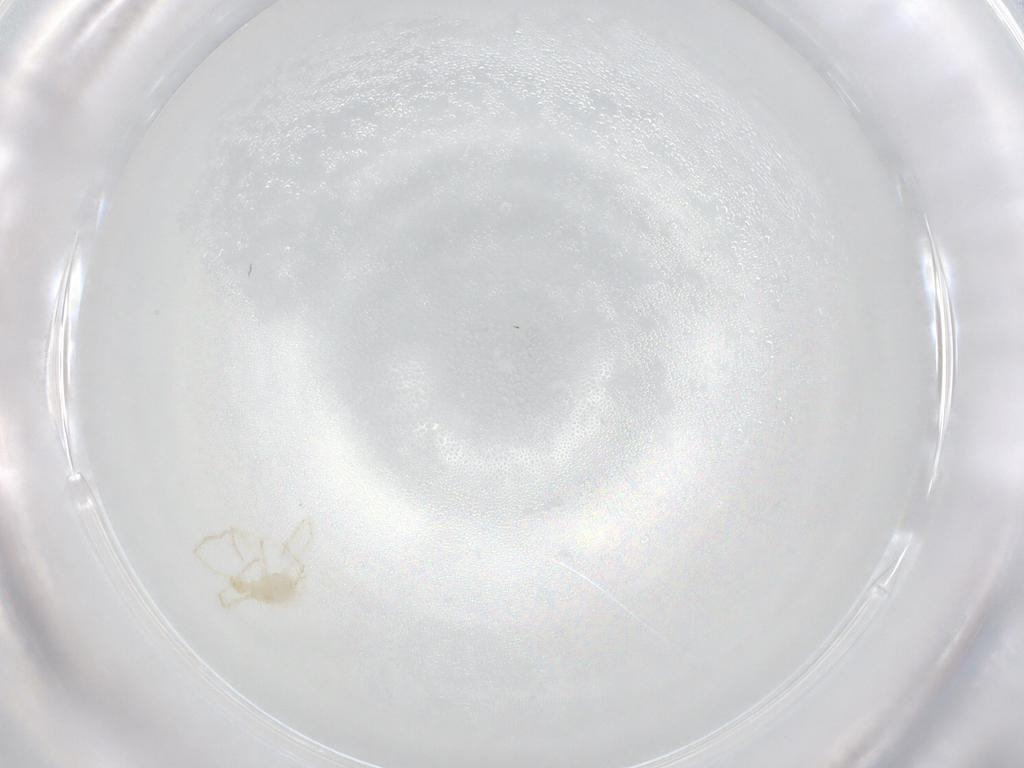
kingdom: Animalia
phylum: Arthropoda
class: Arachnida
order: Trombidiformes
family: Erythraeidae
